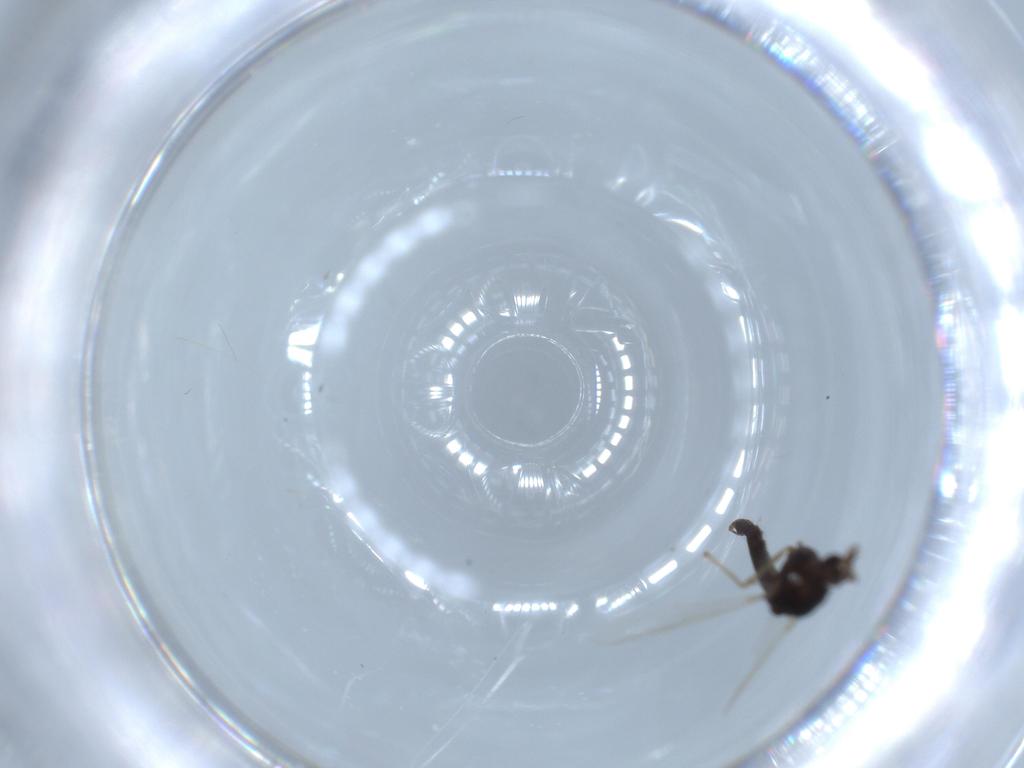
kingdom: Animalia
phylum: Arthropoda
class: Insecta
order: Diptera
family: Chironomidae
